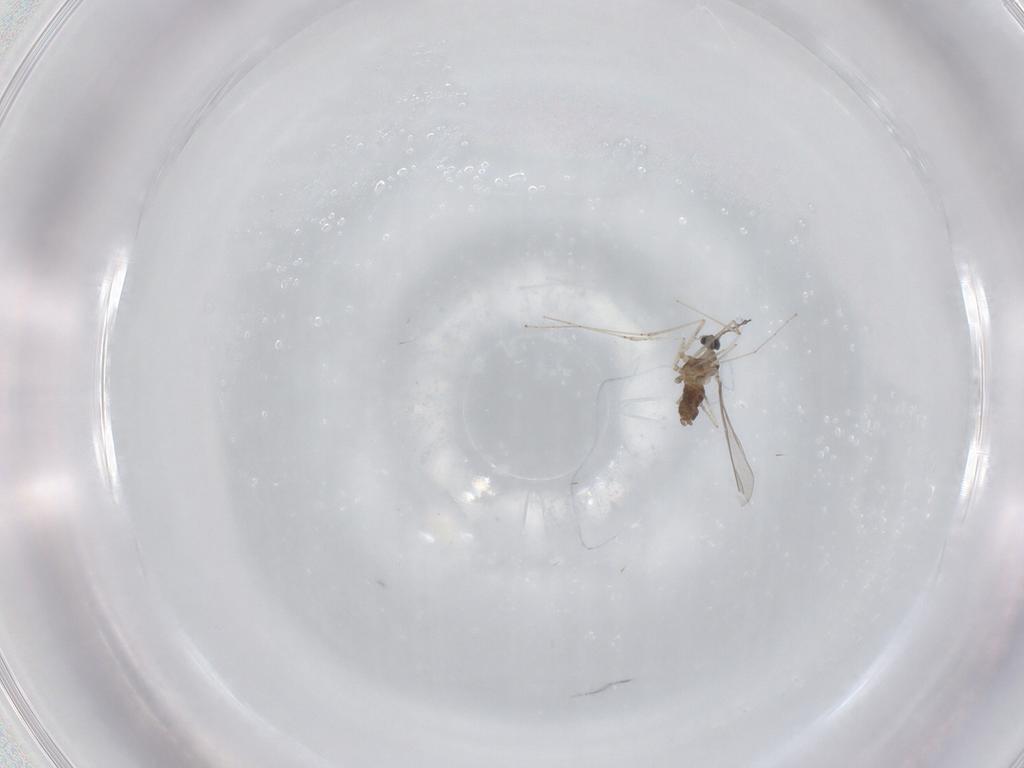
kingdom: Animalia
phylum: Arthropoda
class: Insecta
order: Diptera
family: Cecidomyiidae
